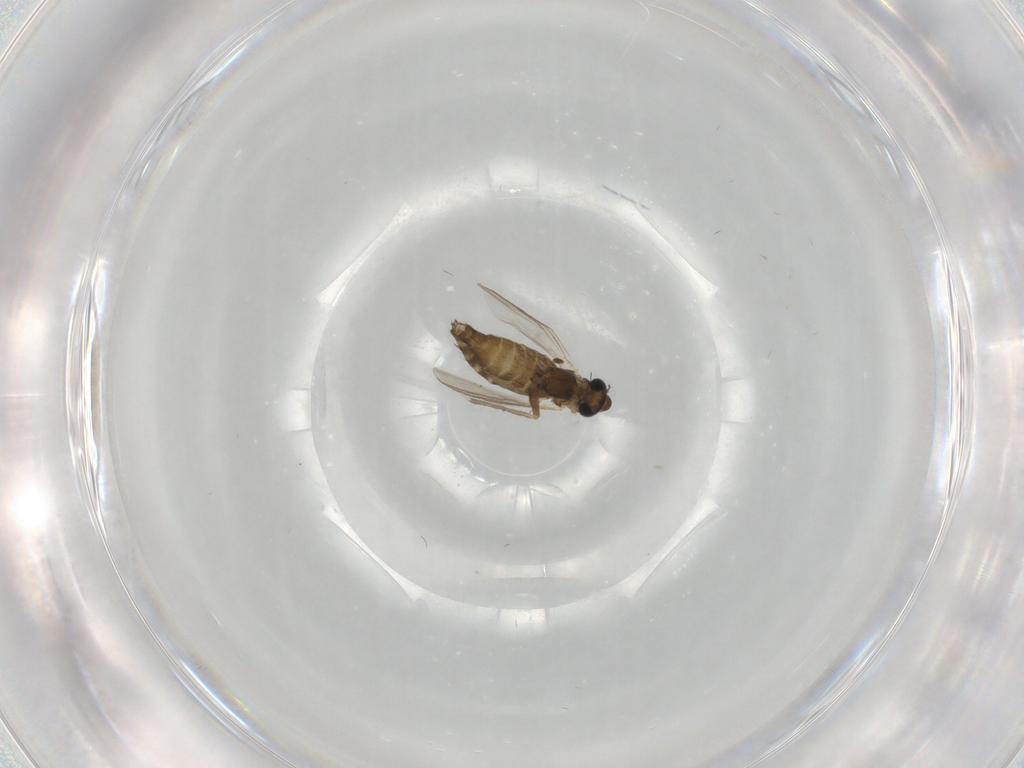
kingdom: Animalia
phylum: Arthropoda
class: Insecta
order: Diptera
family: Chironomidae
